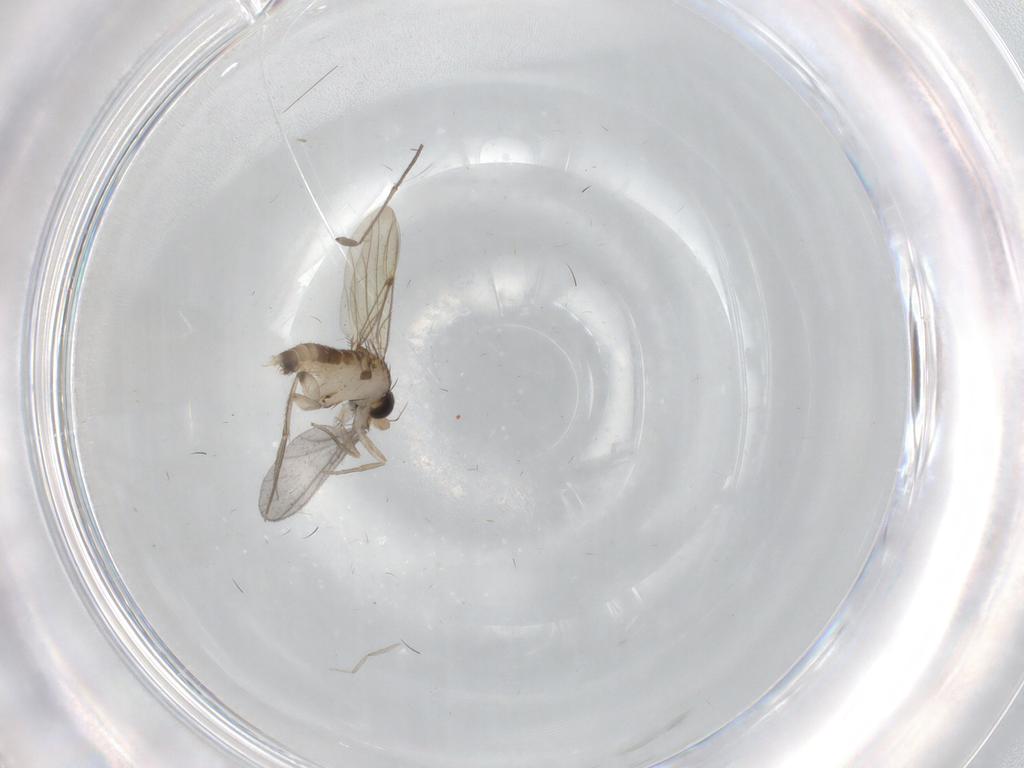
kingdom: Animalia
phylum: Arthropoda
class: Insecta
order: Diptera
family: Sciaridae
